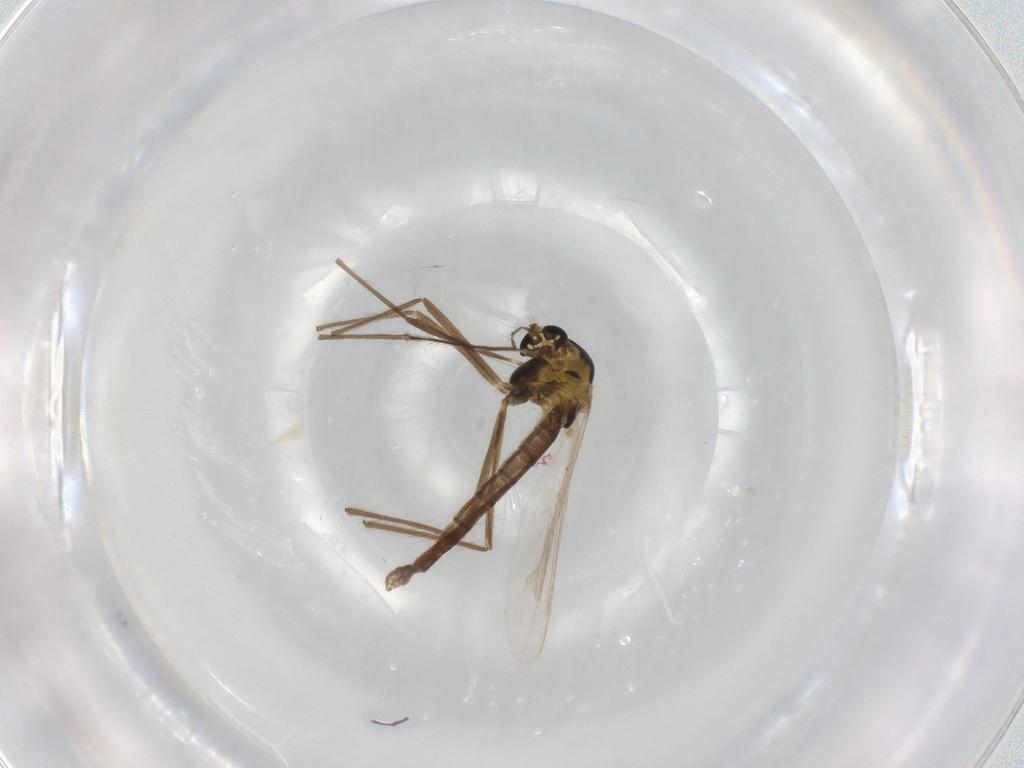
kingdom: Animalia
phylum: Arthropoda
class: Insecta
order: Diptera
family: Chironomidae
